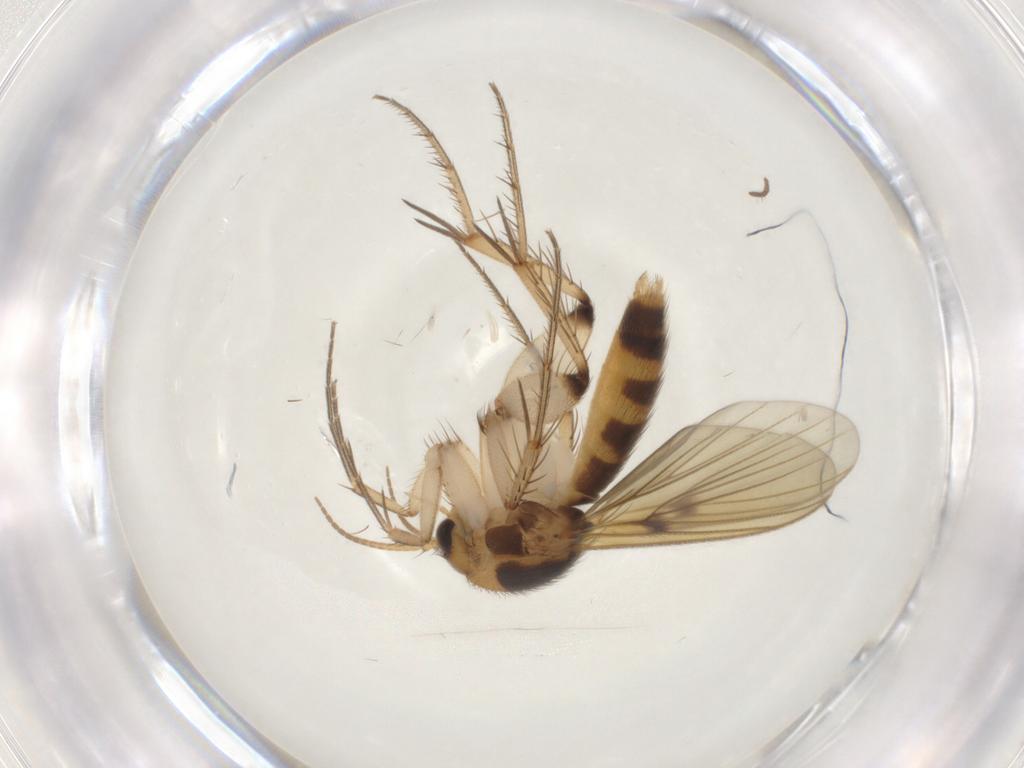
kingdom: Animalia
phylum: Arthropoda
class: Insecta
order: Diptera
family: Mycetophilidae
